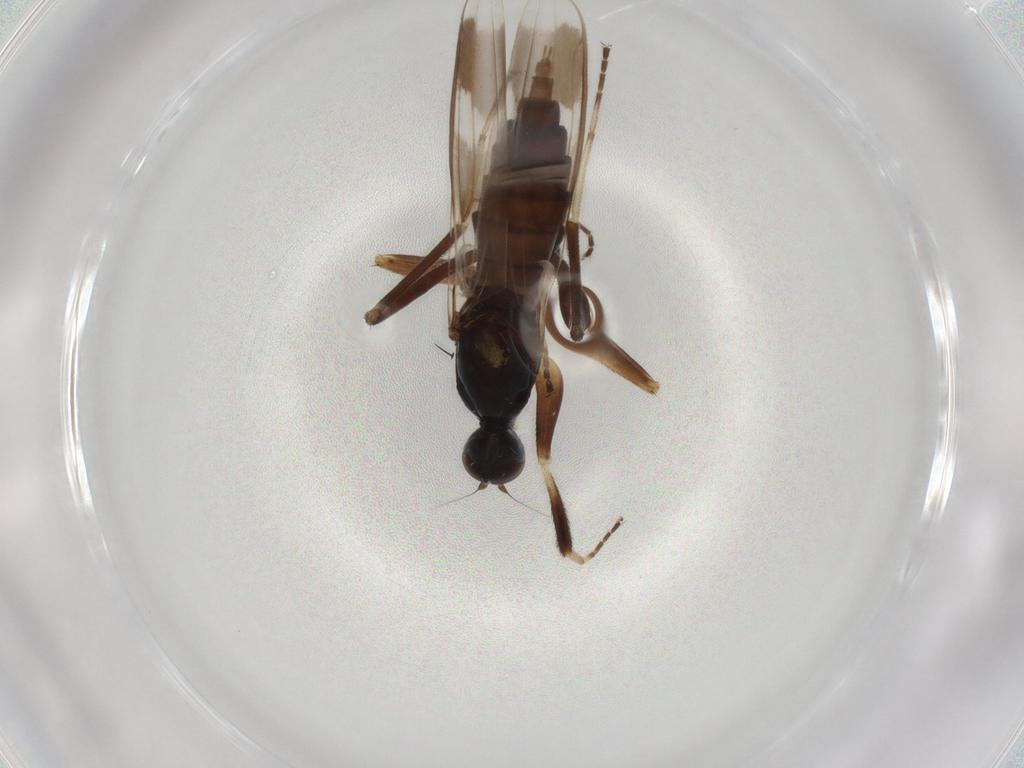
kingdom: Animalia
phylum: Arthropoda
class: Insecta
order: Diptera
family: Hybotidae
